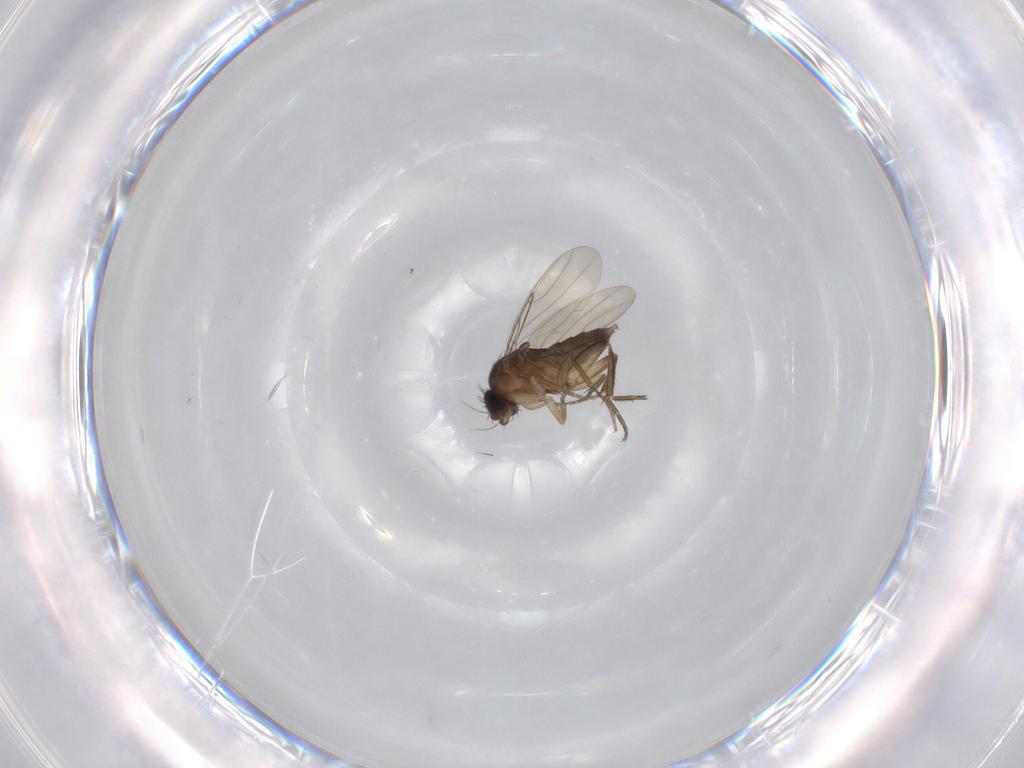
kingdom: Animalia
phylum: Arthropoda
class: Insecta
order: Diptera
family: Phoridae
